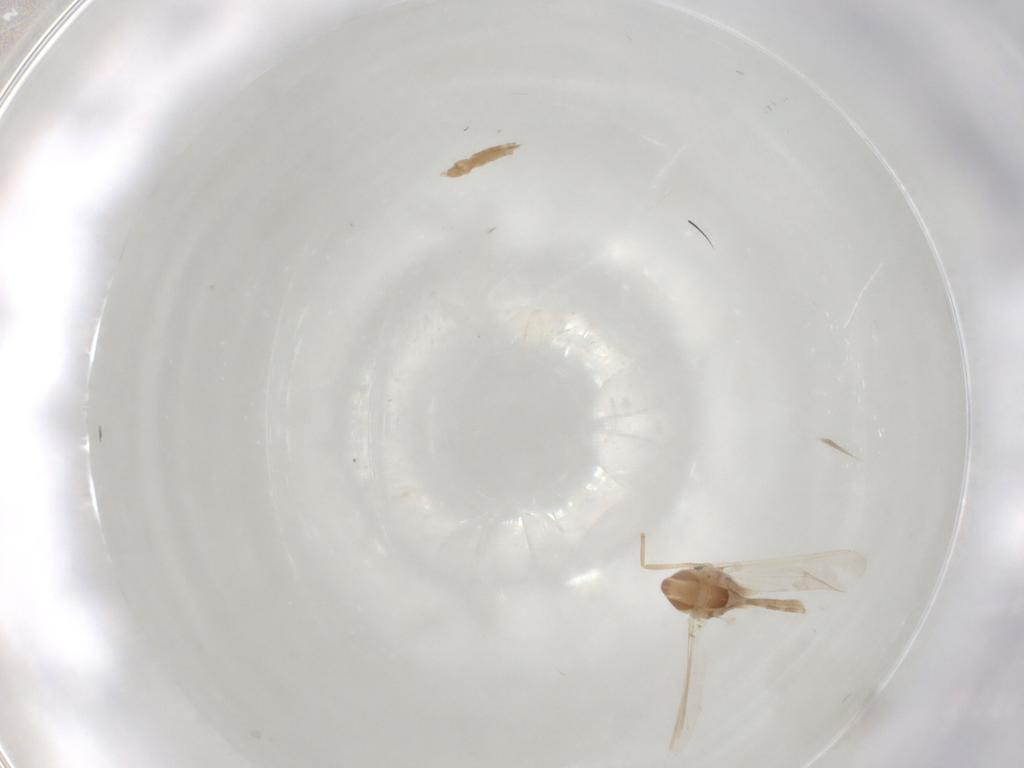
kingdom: Animalia
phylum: Arthropoda
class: Insecta
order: Diptera
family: Chironomidae
